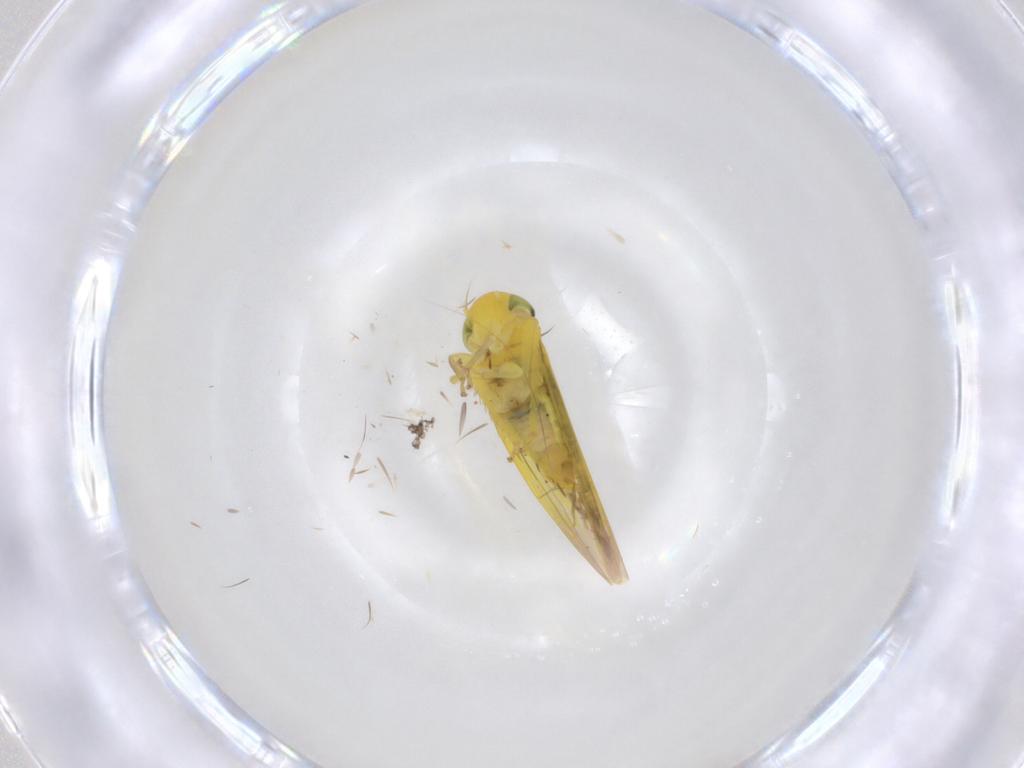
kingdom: Animalia
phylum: Arthropoda
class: Insecta
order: Hemiptera
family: Cicadellidae
